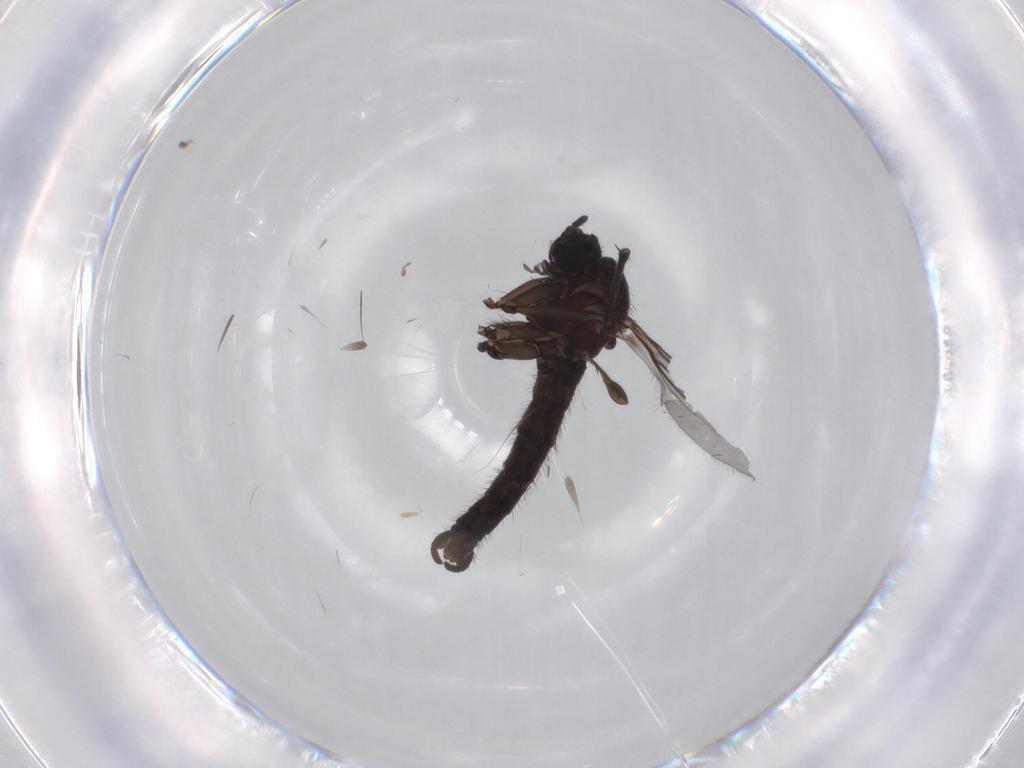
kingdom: Animalia
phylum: Arthropoda
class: Insecta
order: Diptera
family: Sciaridae
